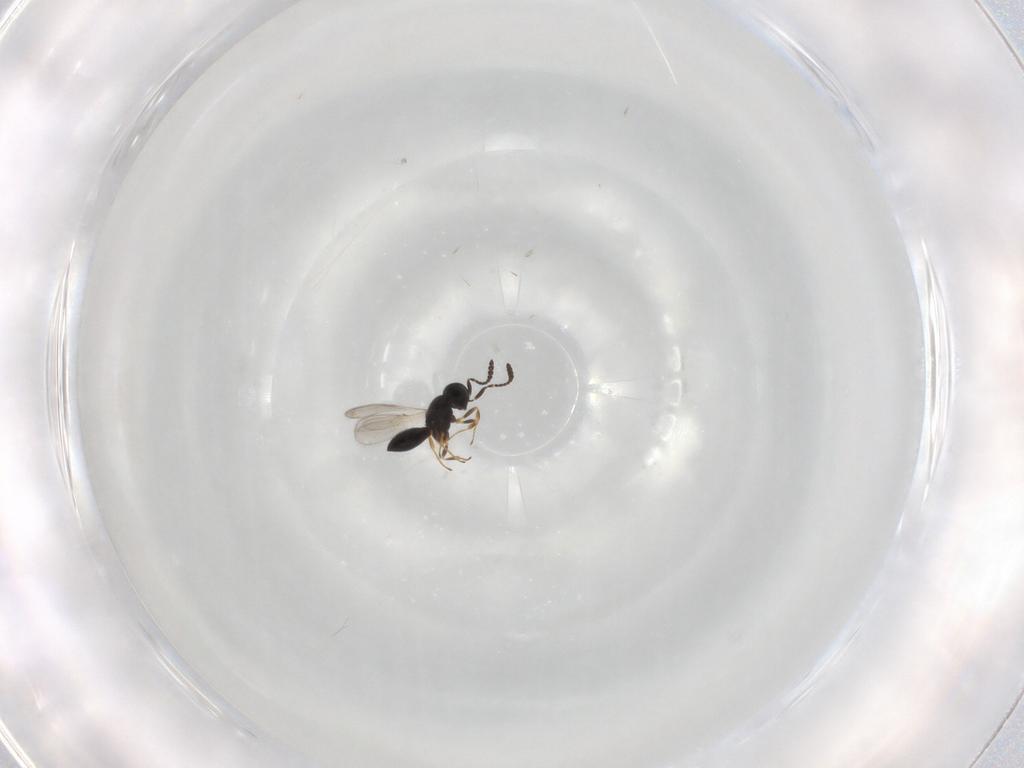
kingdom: Animalia
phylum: Arthropoda
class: Insecta
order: Hymenoptera
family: Scelionidae
